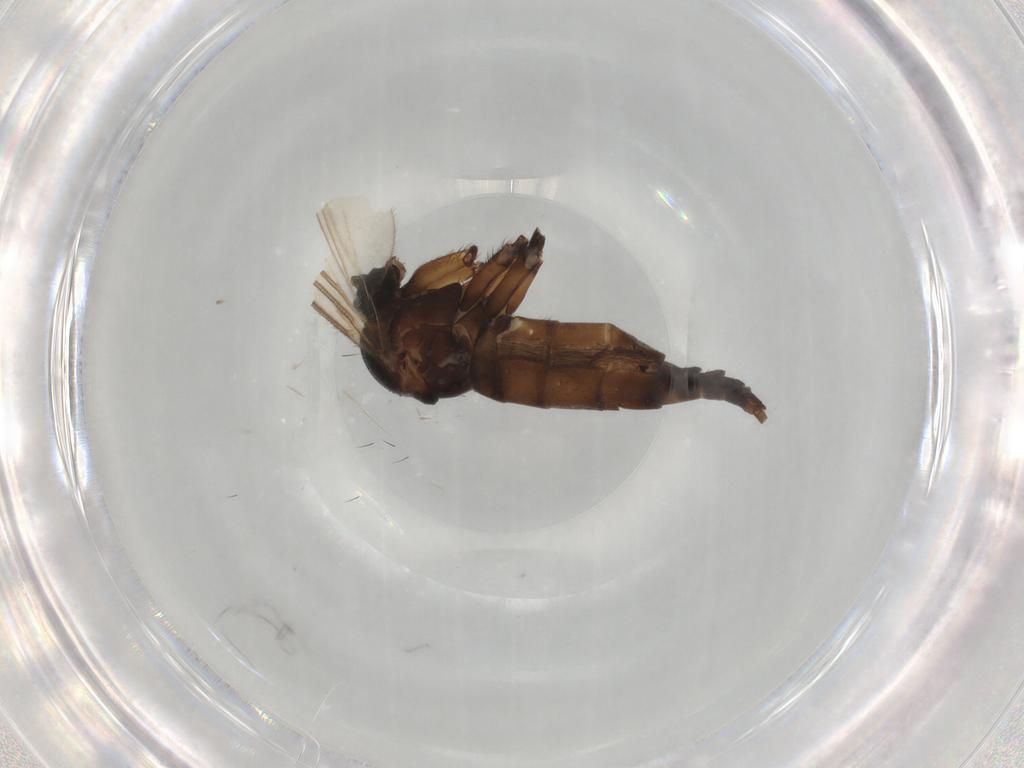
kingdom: Animalia
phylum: Arthropoda
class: Insecta
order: Diptera
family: Sciaridae
